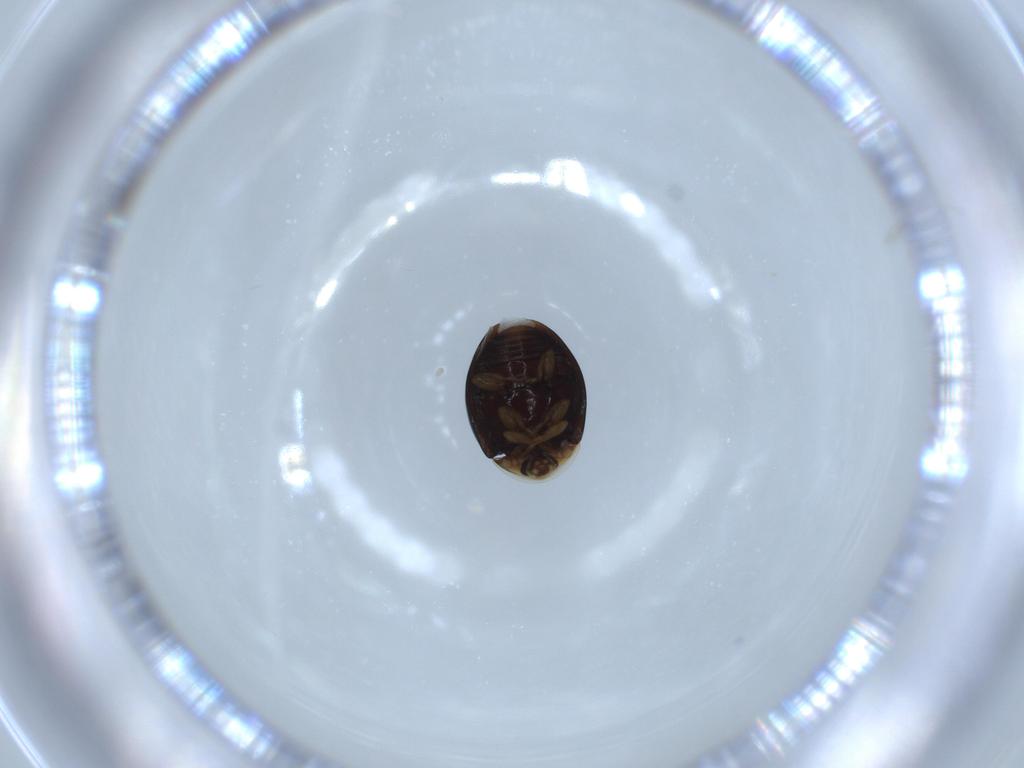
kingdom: Animalia
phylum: Arthropoda
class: Insecta
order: Coleoptera
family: Corylophidae
